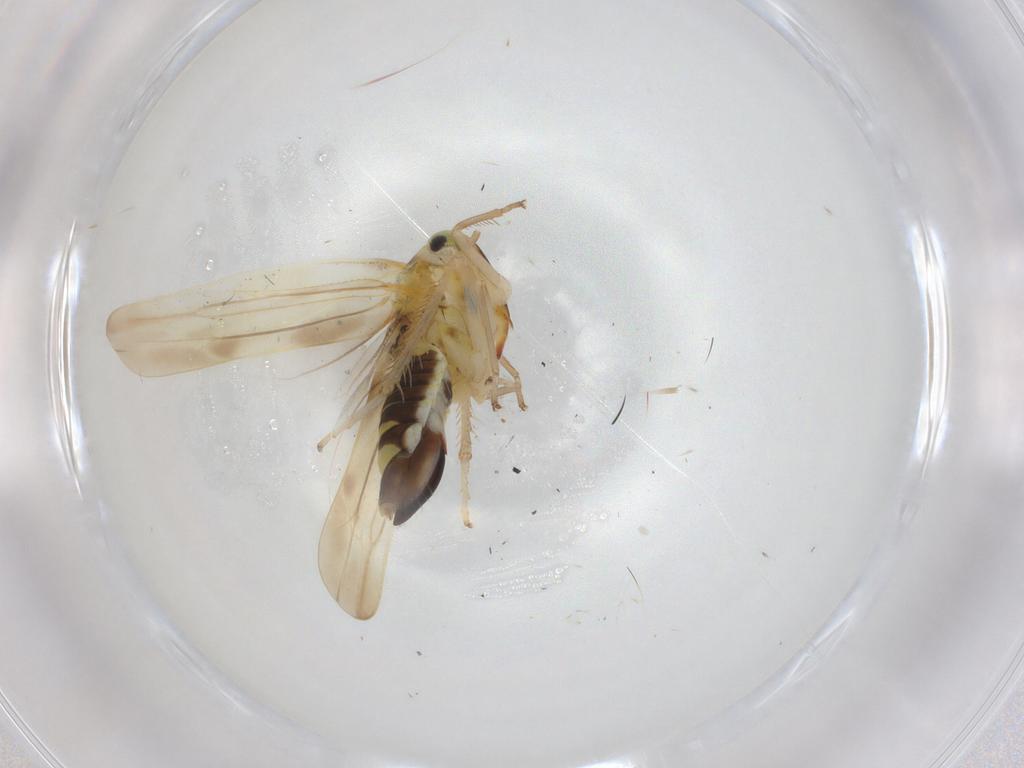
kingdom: Animalia
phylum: Arthropoda
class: Insecta
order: Hemiptera
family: Cicadellidae
